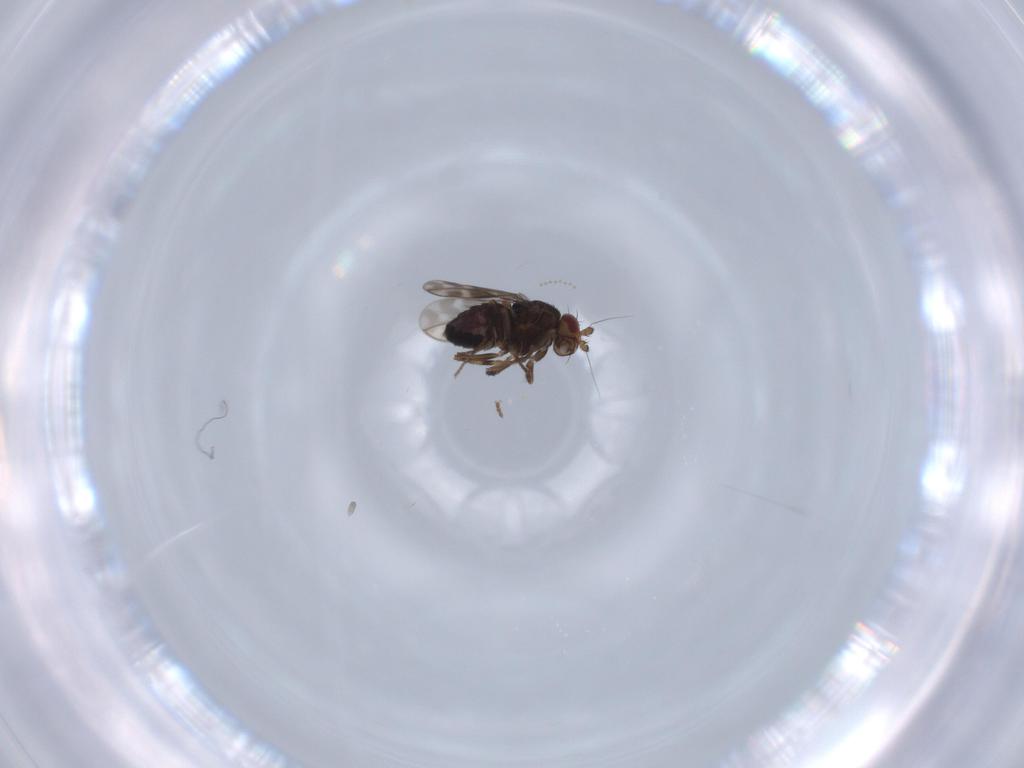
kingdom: Animalia
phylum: Arthropoda
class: Insecta
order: Diptera
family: Sphaeroceridae
